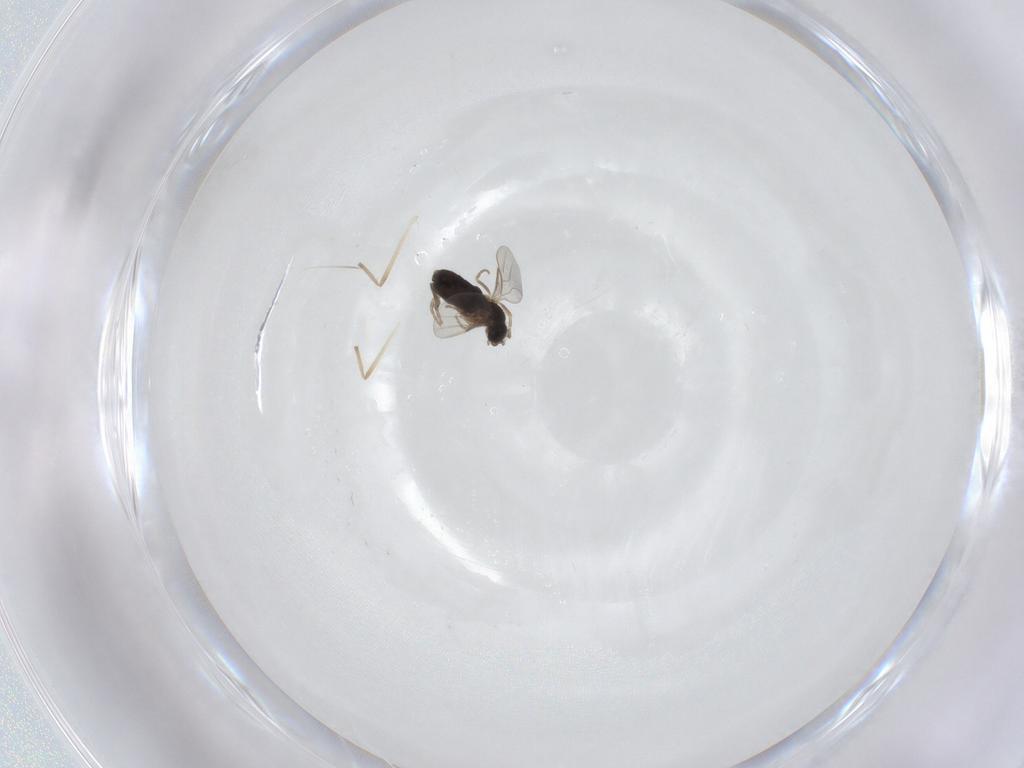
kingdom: Animalia
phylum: Arthropoda
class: Insecta
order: Diptera
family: Phoridae
